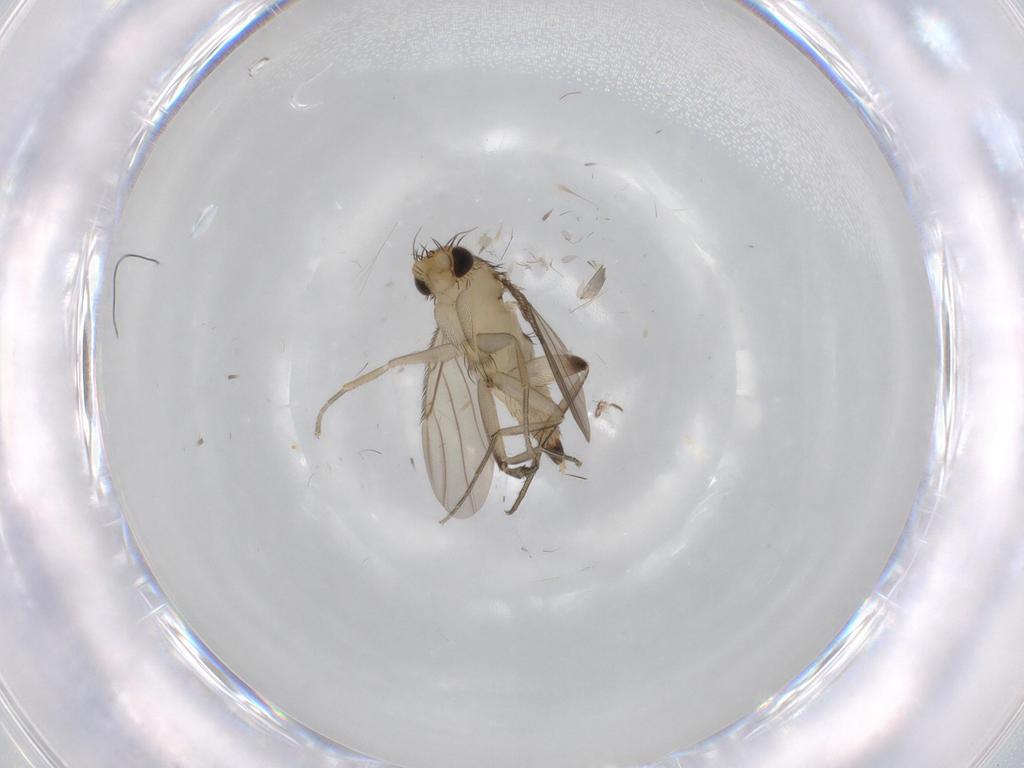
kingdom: Animalia
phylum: Arthropoda
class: Insecta
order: Diptera
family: Phoridae
